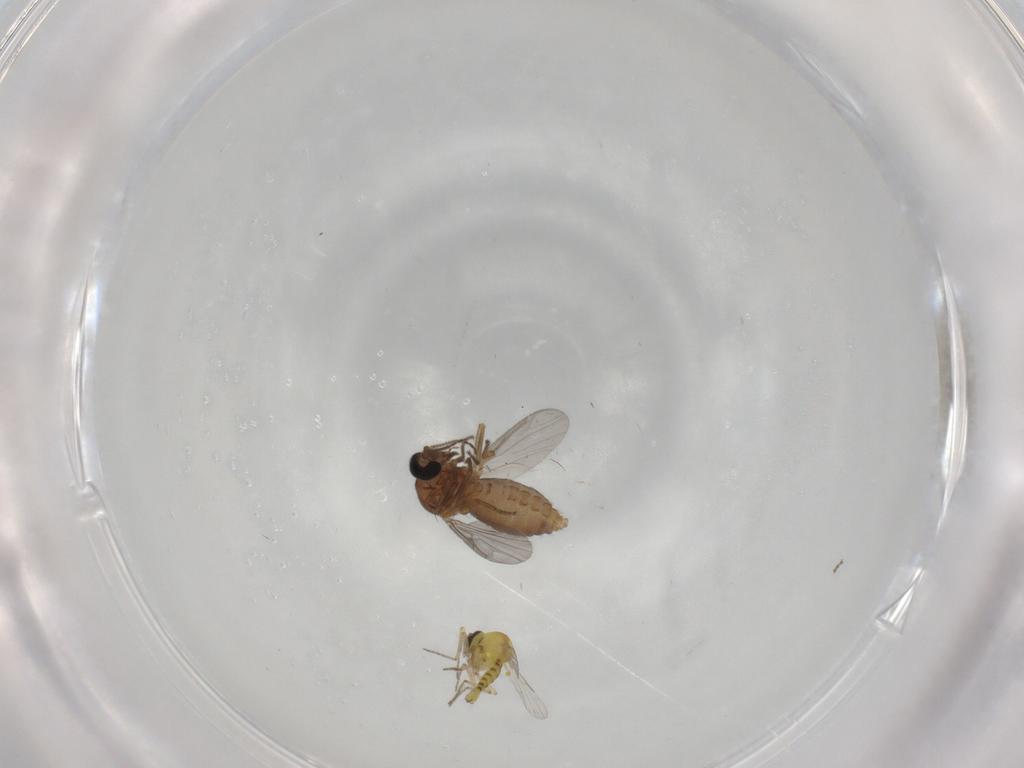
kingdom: Animalia
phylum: Arthropoda
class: Insecta
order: Diptera
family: Ceratopogonidae
